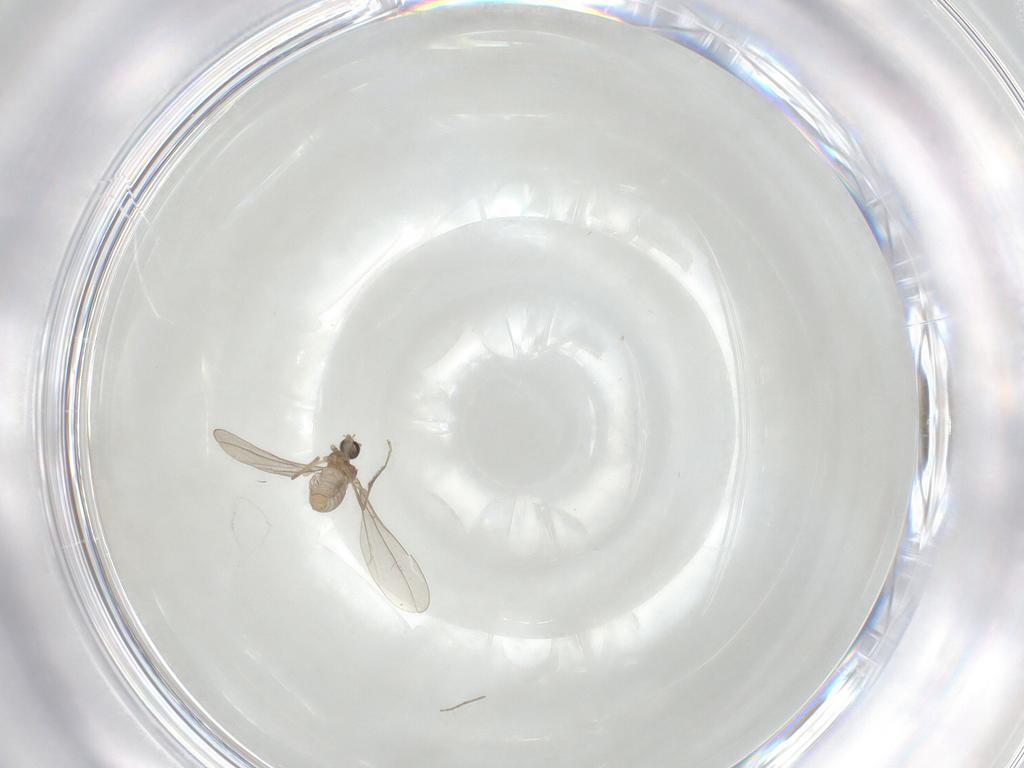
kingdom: Animalia
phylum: Arthropoda
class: Insecta
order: Diptera
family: Cecidomyiidae
